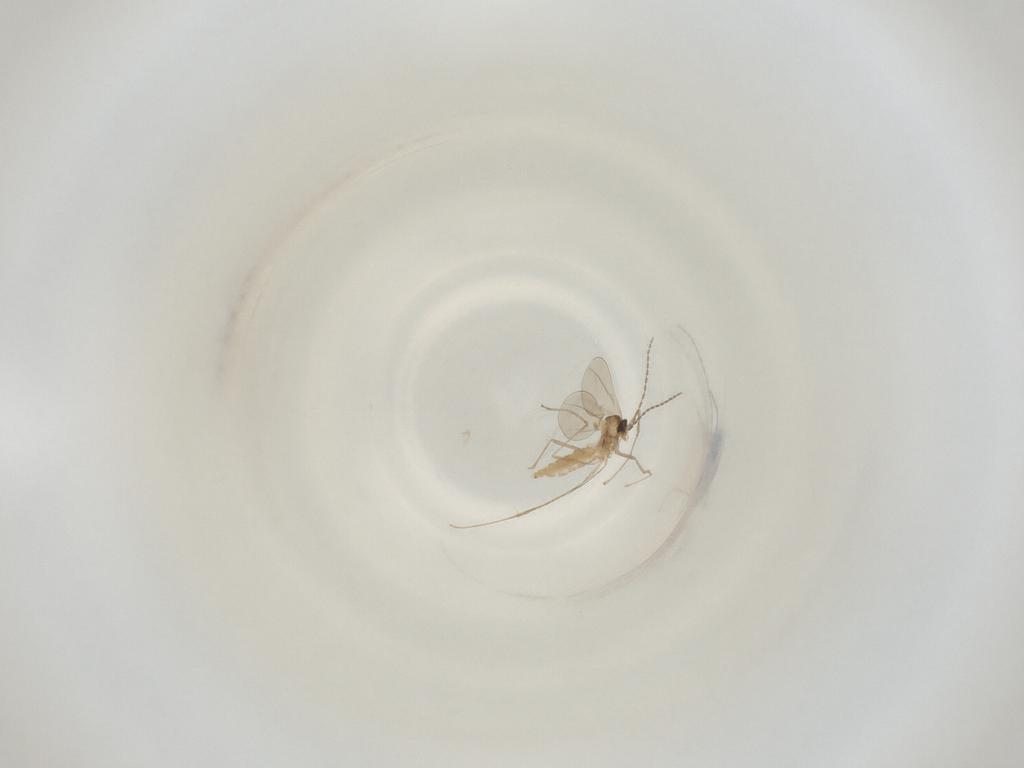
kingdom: Animalia
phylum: Arthropoda
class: Insecta
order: Diptera
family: Cecidomyiidae
